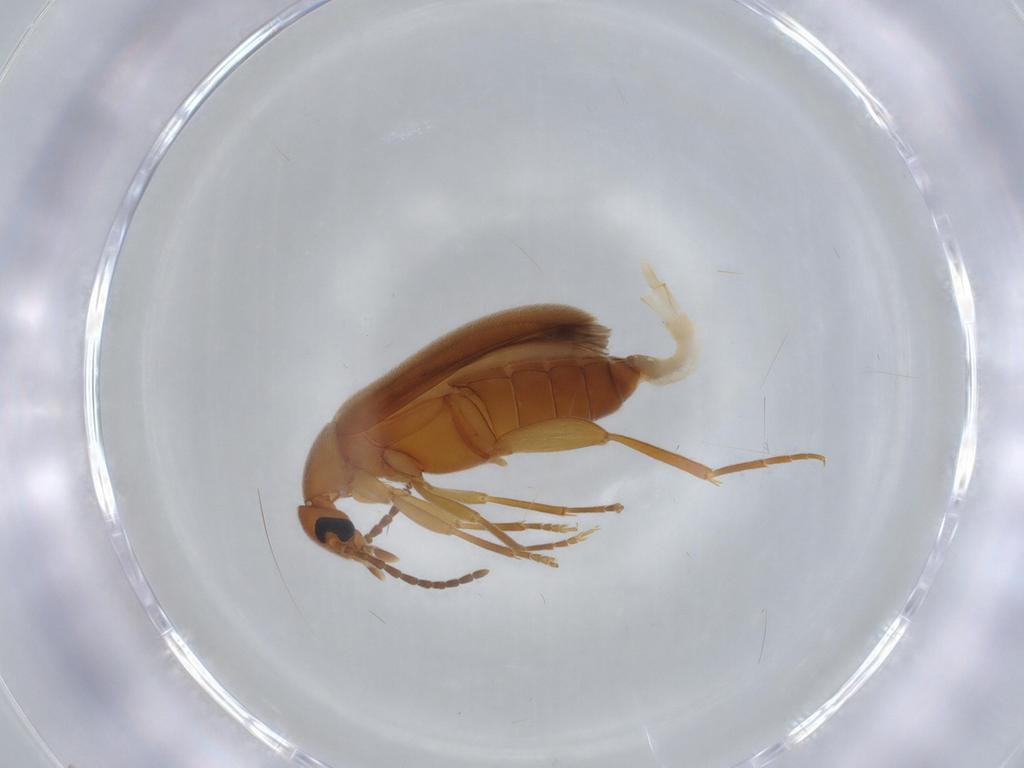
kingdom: Animalia
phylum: Arthropoda
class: Insecta
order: Coleoptera
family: Scraptiidae
